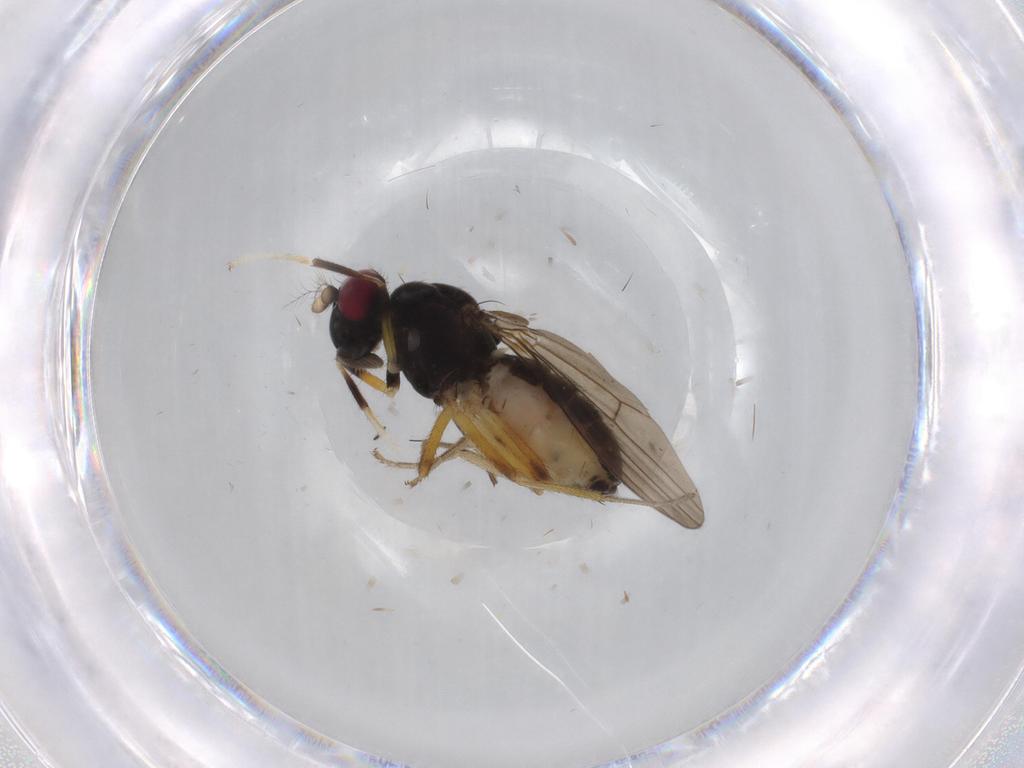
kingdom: Animalia
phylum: Arthropoda
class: Insecta
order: Diptera
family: Lauxaniidae
